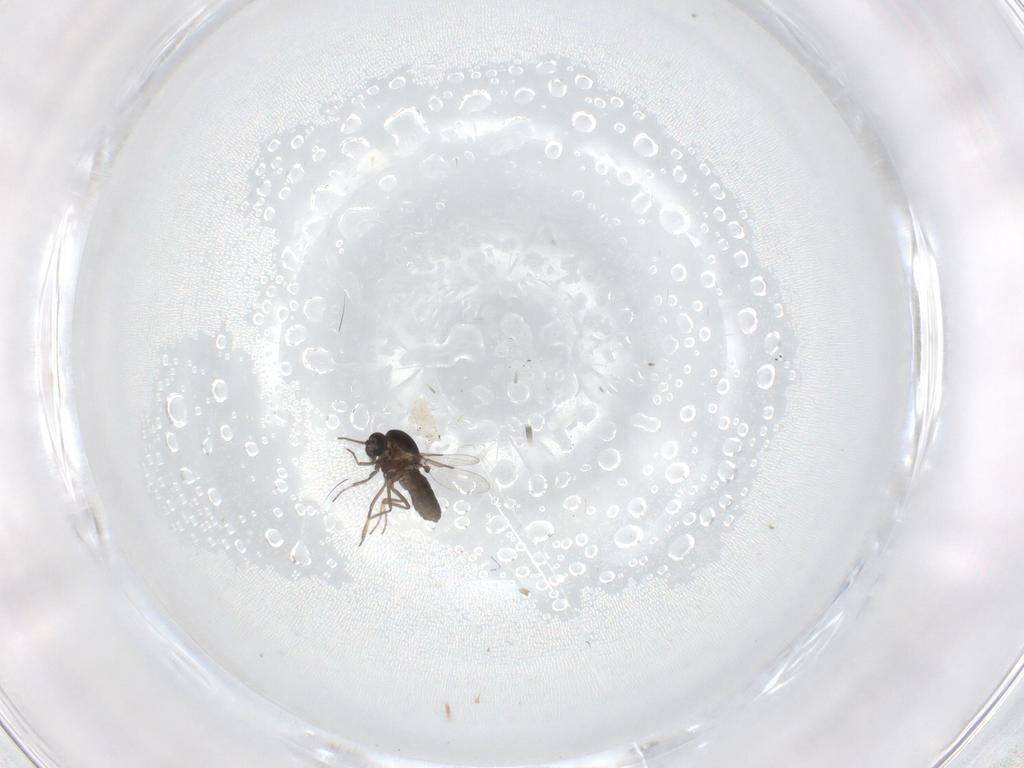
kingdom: Animalia
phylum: Arthropoda
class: Insecta
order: Diptera
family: Ceratopogonidae
